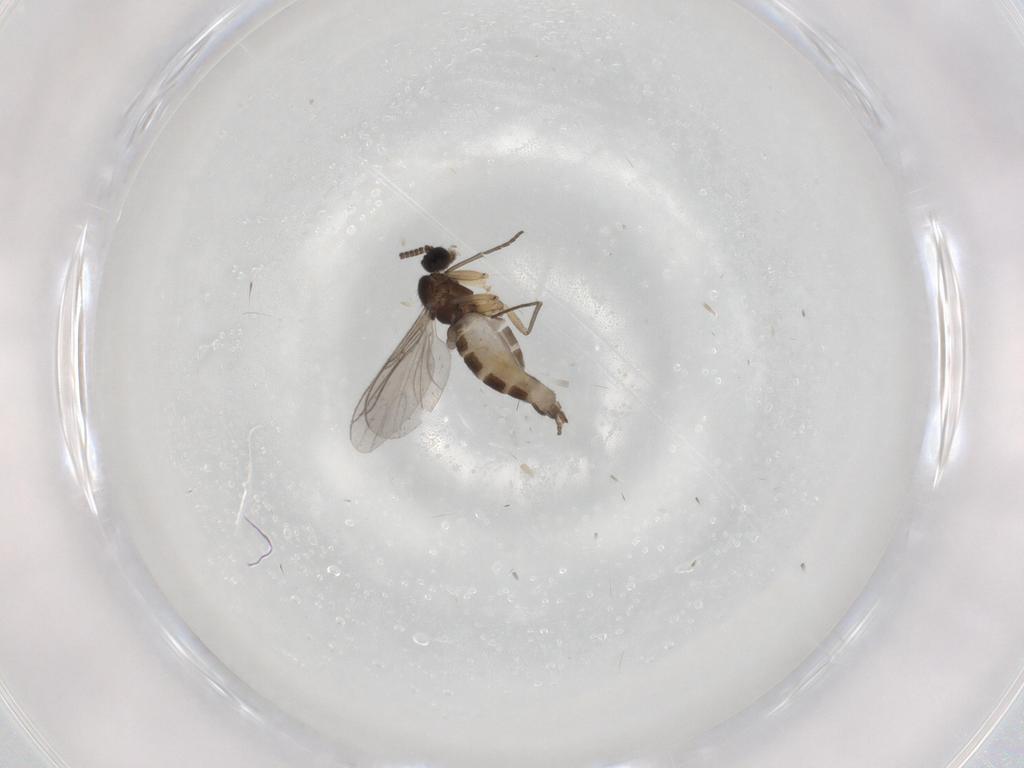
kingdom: Animalia
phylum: Arthropoda
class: Insecta
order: Diptera
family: Sciaridae
